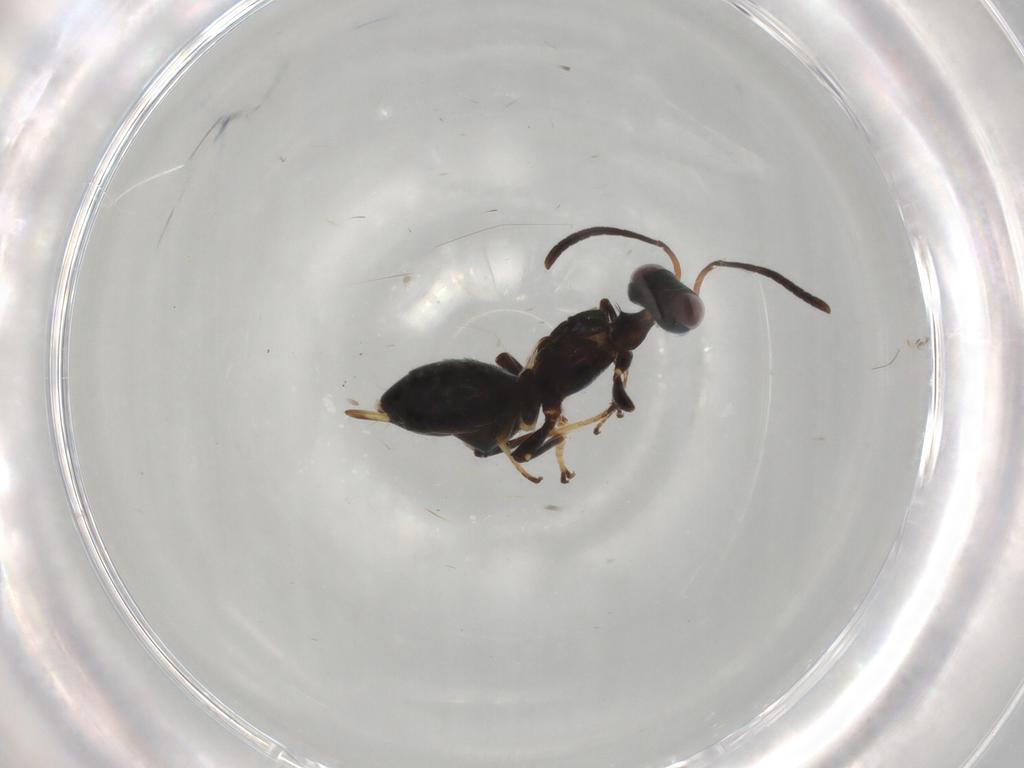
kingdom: Animalia
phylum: Arthropoda
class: Insecta
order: Hymenoptera
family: Eupelmidae
